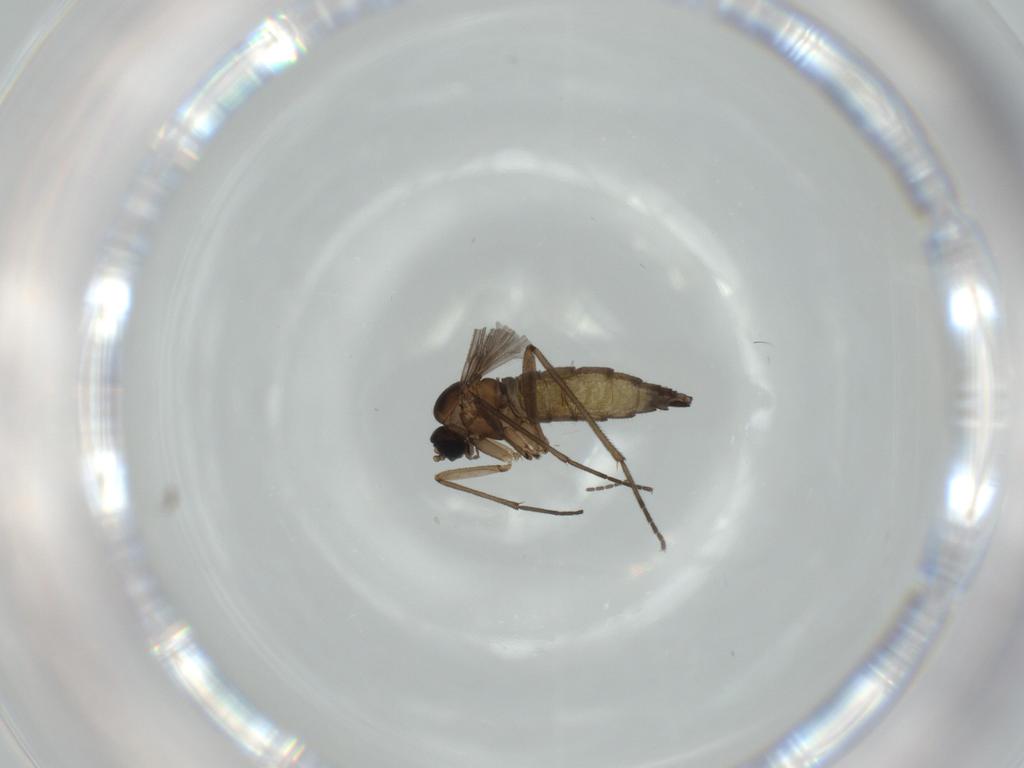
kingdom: Animalia
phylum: Arthropoda
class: Insecta
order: Diptera
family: Sciaridae
